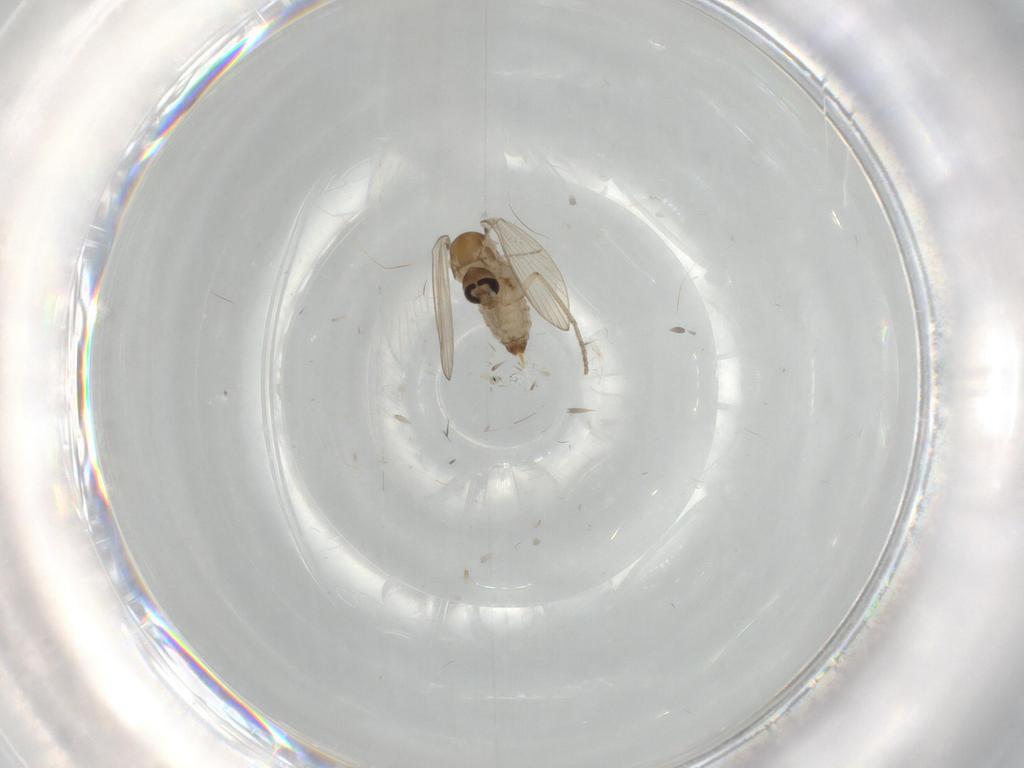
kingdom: Animalia
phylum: Arthropoda
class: Insecta
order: Diptera
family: Psychodidae
